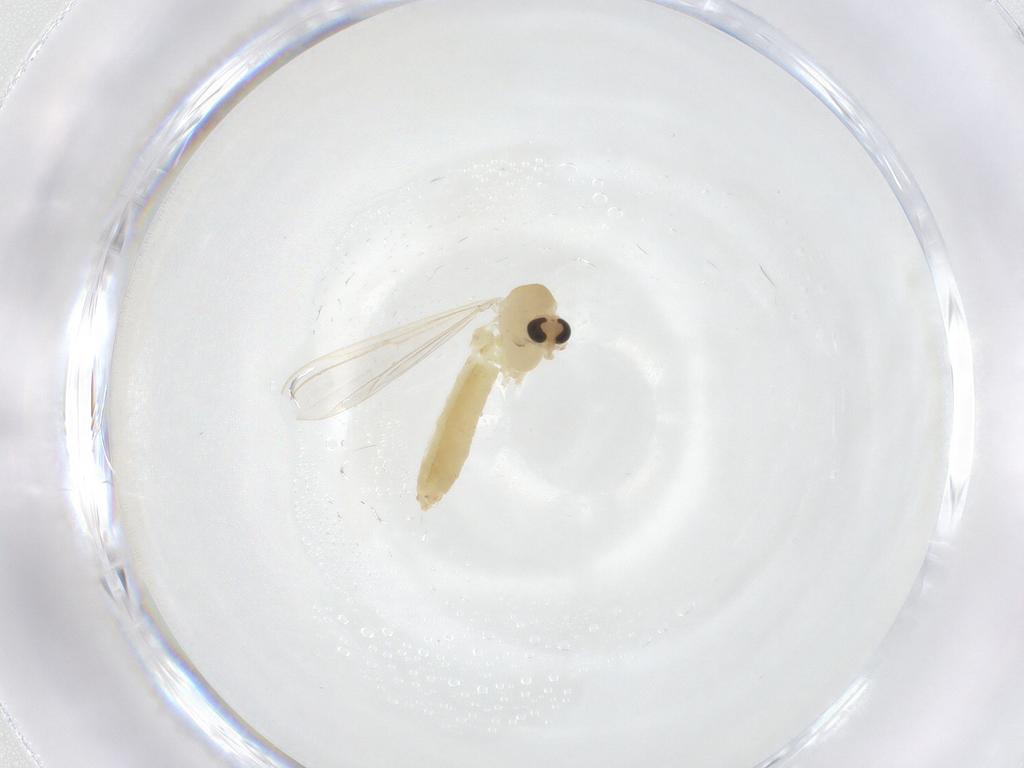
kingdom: Animalia
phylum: Arthropoda
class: Insecta
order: Diptera
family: Chironomidae
